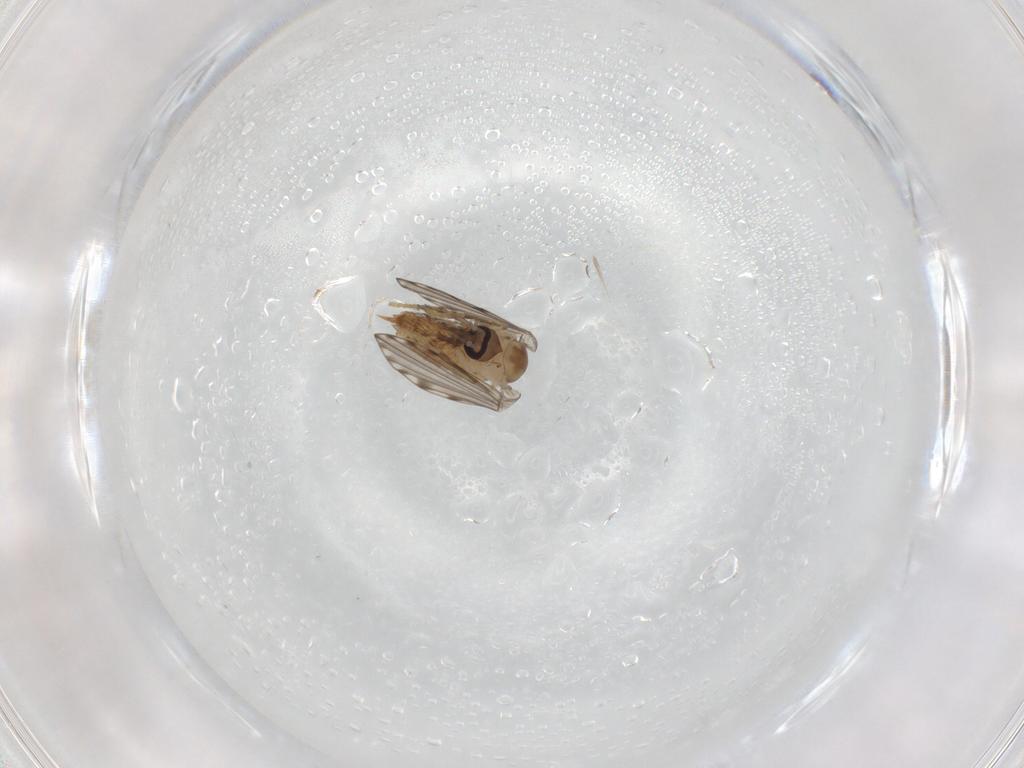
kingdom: Animalia
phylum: Arthropoda
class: Insecta
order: Diptera
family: Psychodidae
